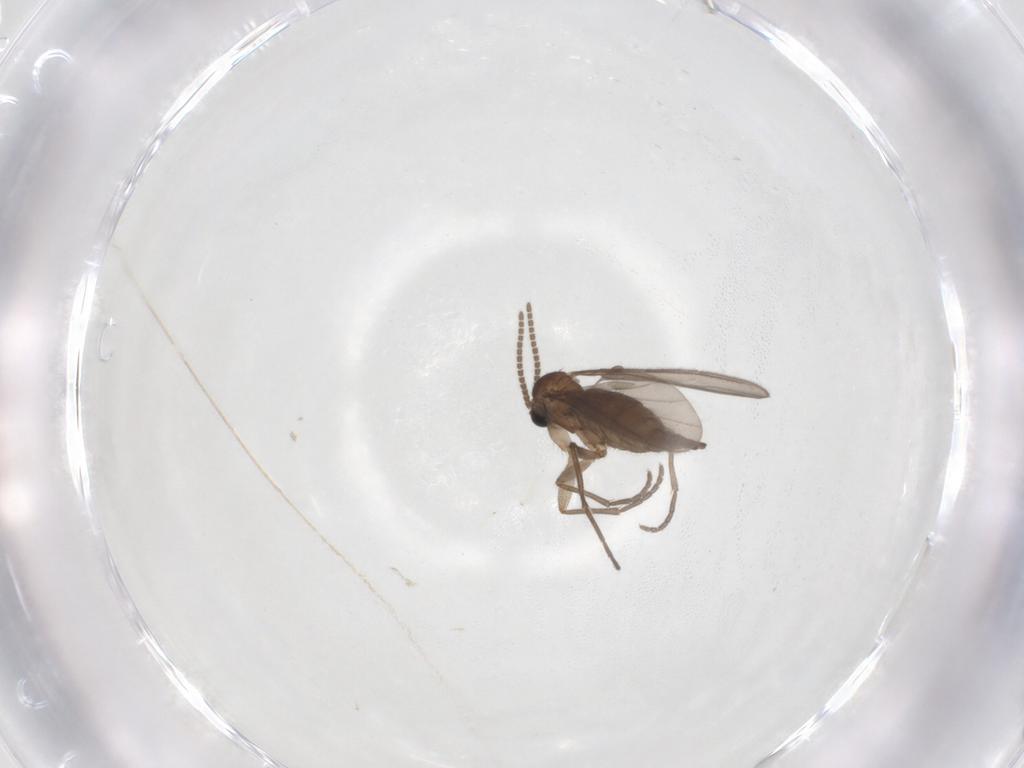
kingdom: Animalia
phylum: Arthropoda
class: Insecta
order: Diptera
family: Sciaridae
